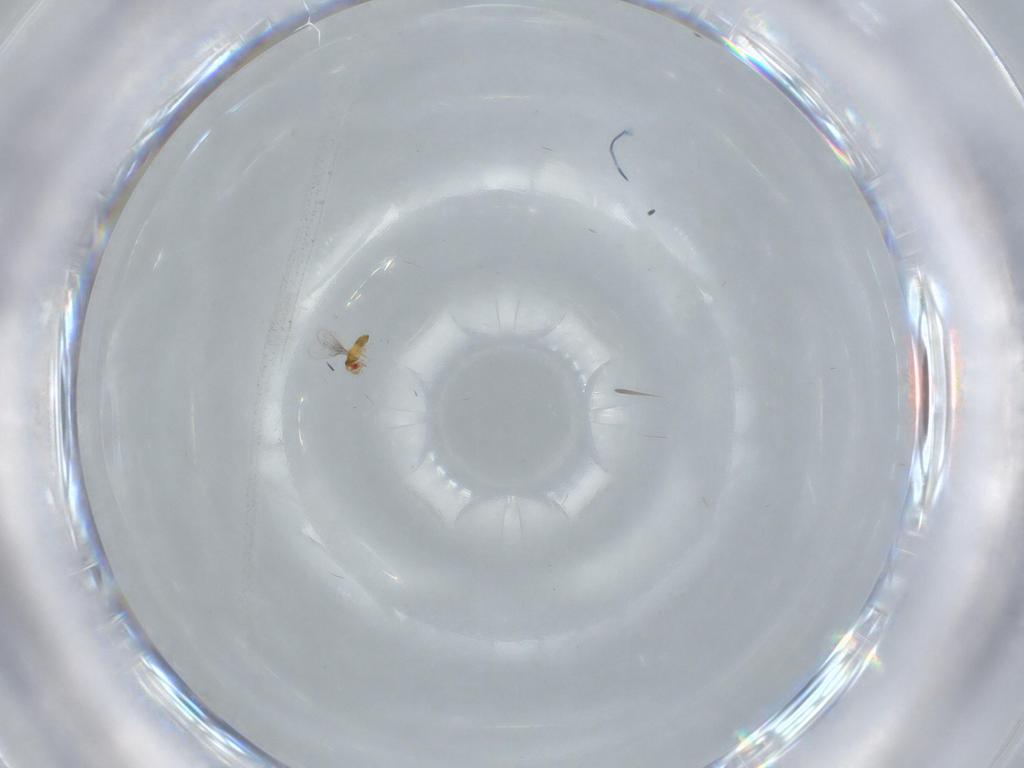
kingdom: Animalia
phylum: Arthropoda
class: Insecta
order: Hymenoptera
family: Trichogrammatidae
